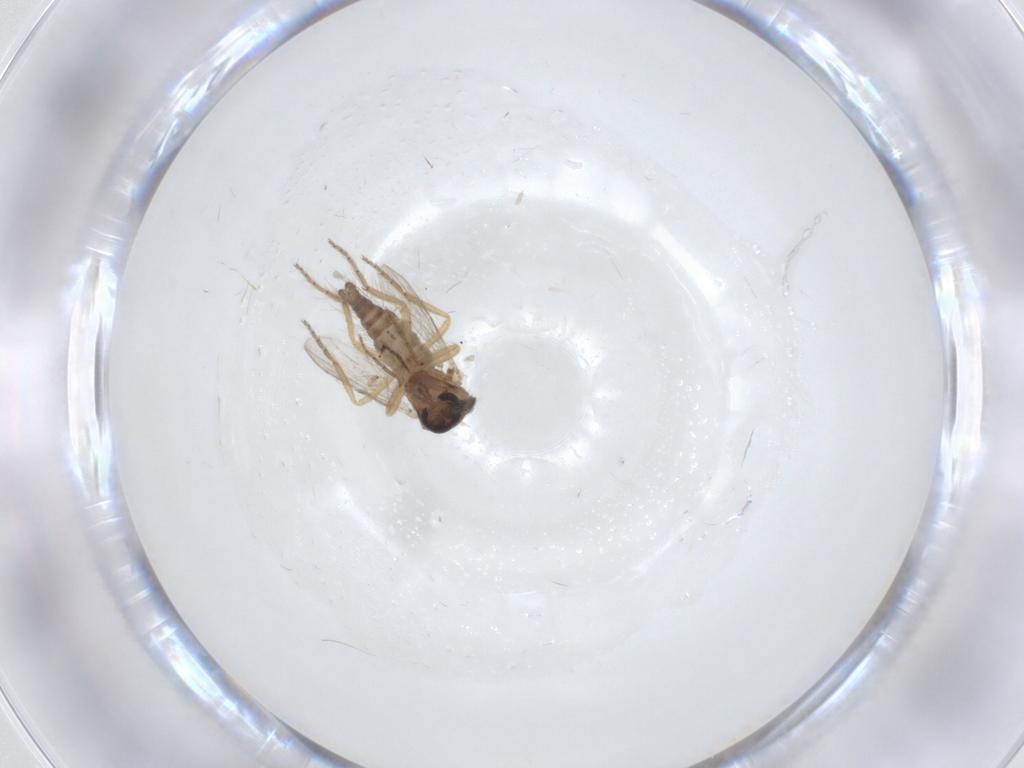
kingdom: Animalia
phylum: Arthropoda
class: Insecta
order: Diptera
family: Ceratopogonidae
